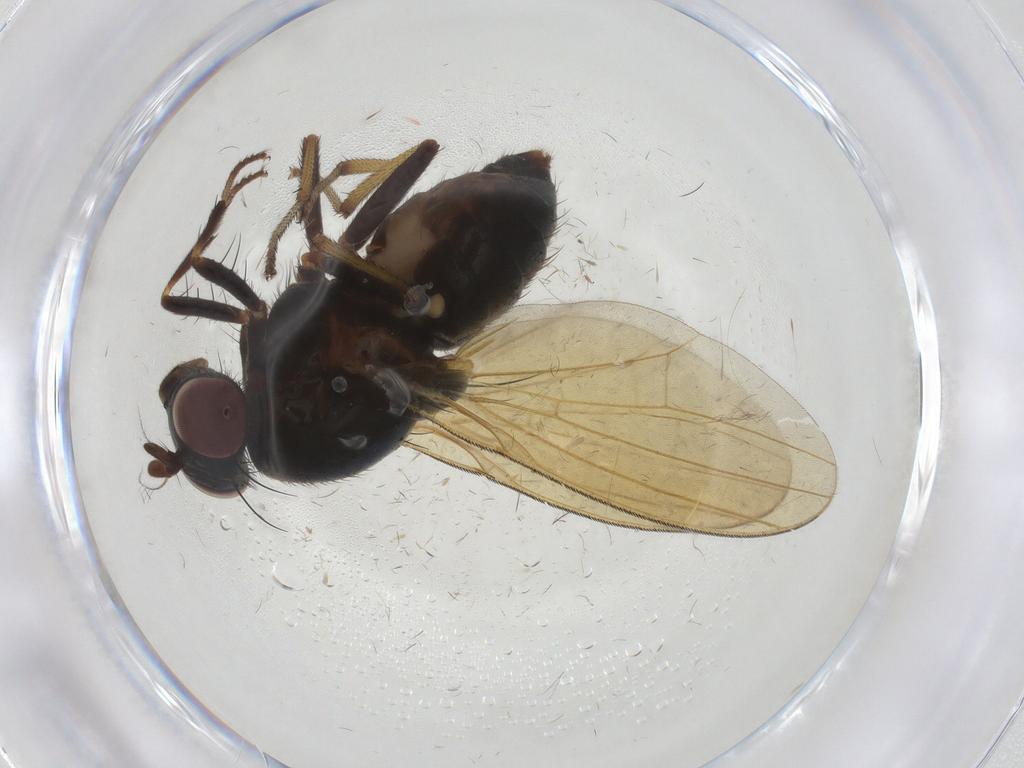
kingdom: Animalia
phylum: Arthropoda
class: Insecta
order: Diptera
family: Lauxaniidae
